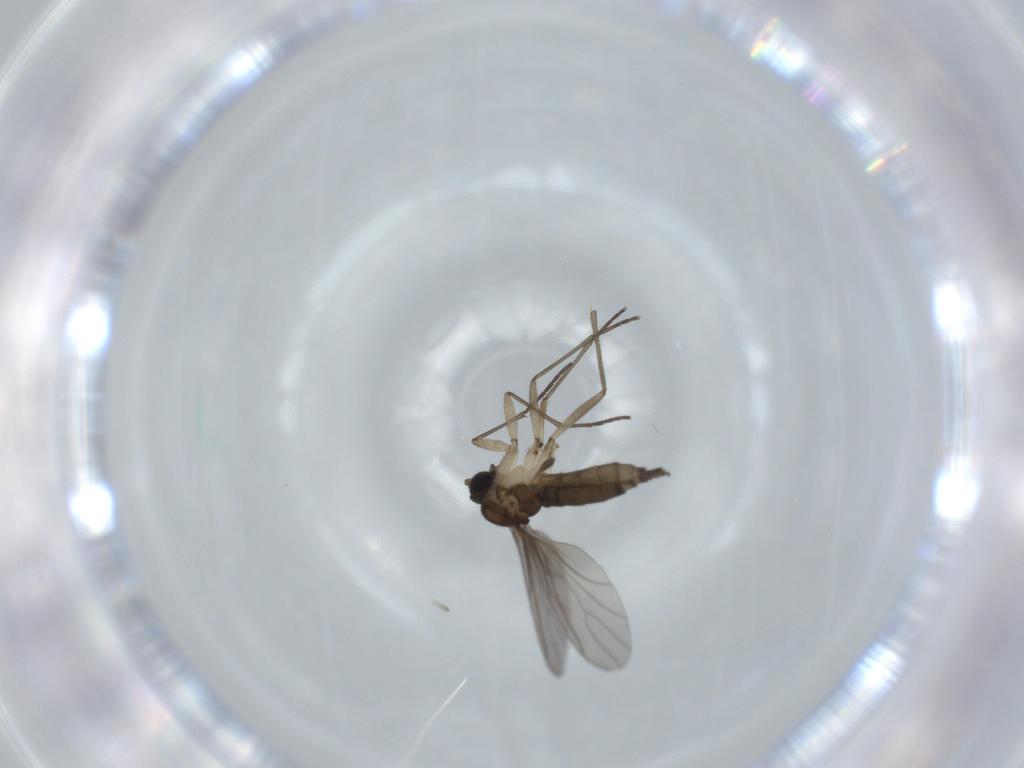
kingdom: Animalia
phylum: Arthropoda
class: Insecta
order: Diptera
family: Sciaridae
